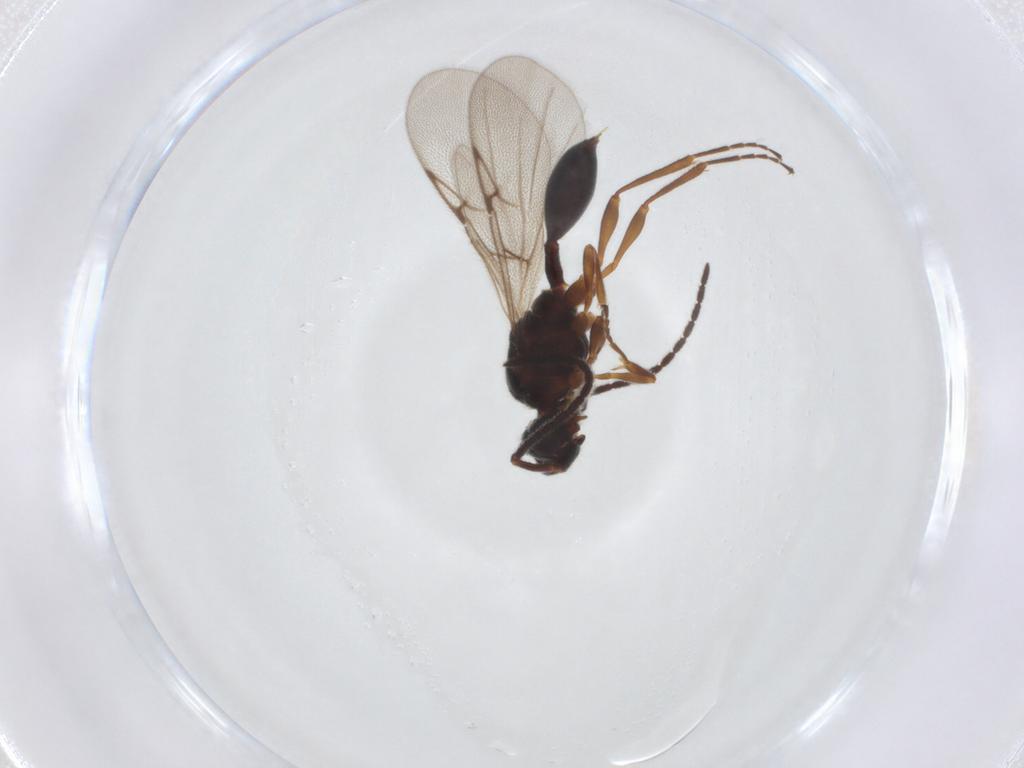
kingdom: Animalia
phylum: Arthropoda
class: Insecta
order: Hymenoptera
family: Diapriidae
